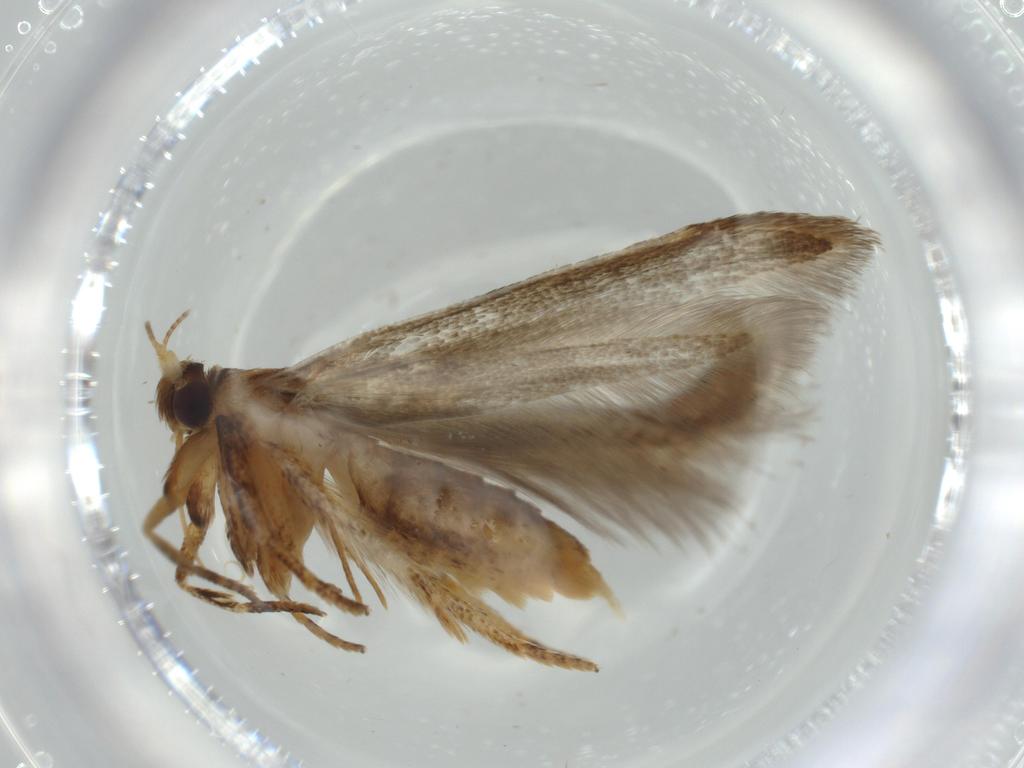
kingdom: Animalia
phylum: Arthropoda
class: Insecta
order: Lepidoptera
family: Blastobasidae
